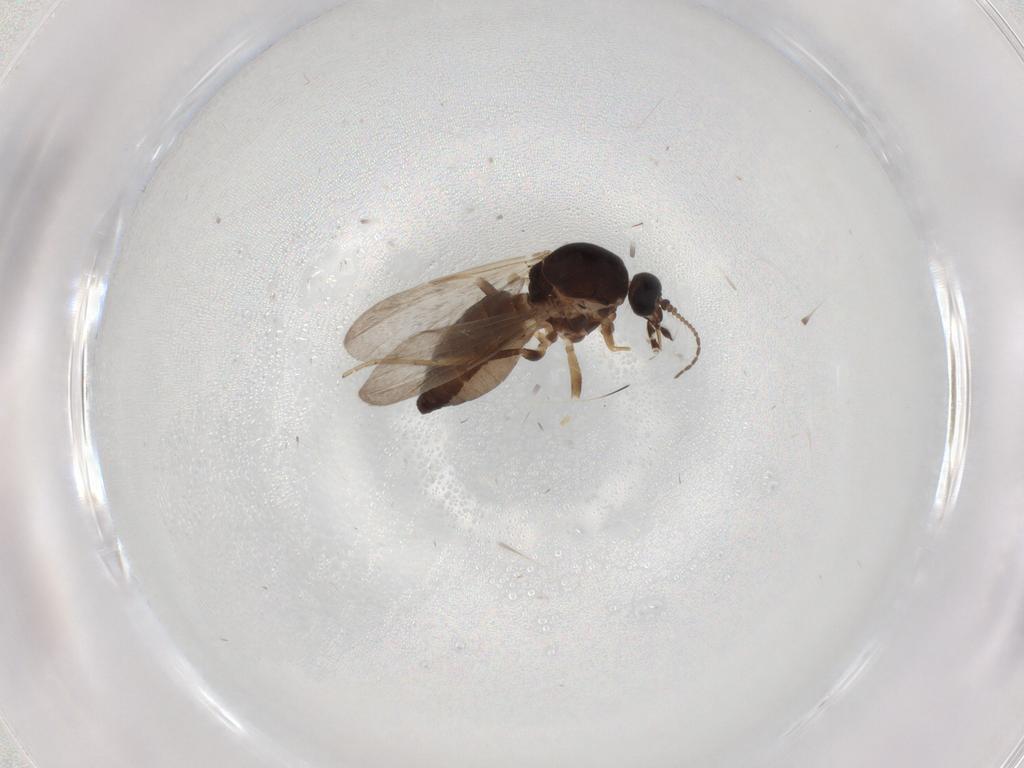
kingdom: Animalia
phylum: Arthropoda
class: Insecta
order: Diptera
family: Ceratopogonidae
